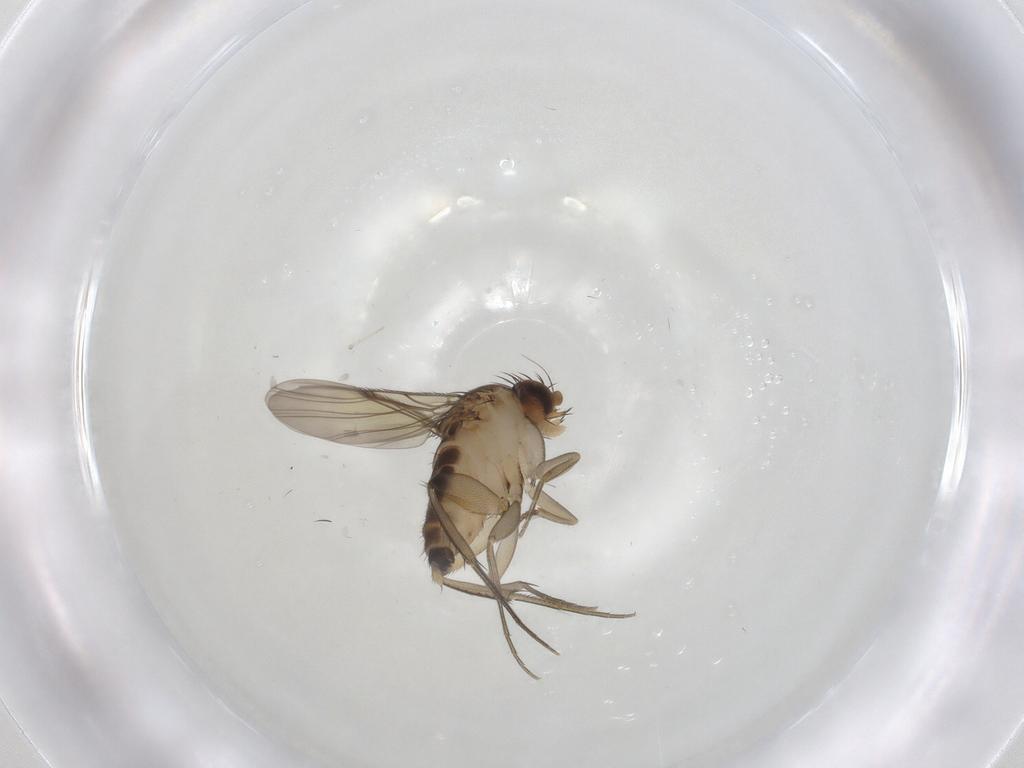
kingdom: Animalia
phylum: Arthropoda
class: Insecta
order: Diptera
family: Phoridae
